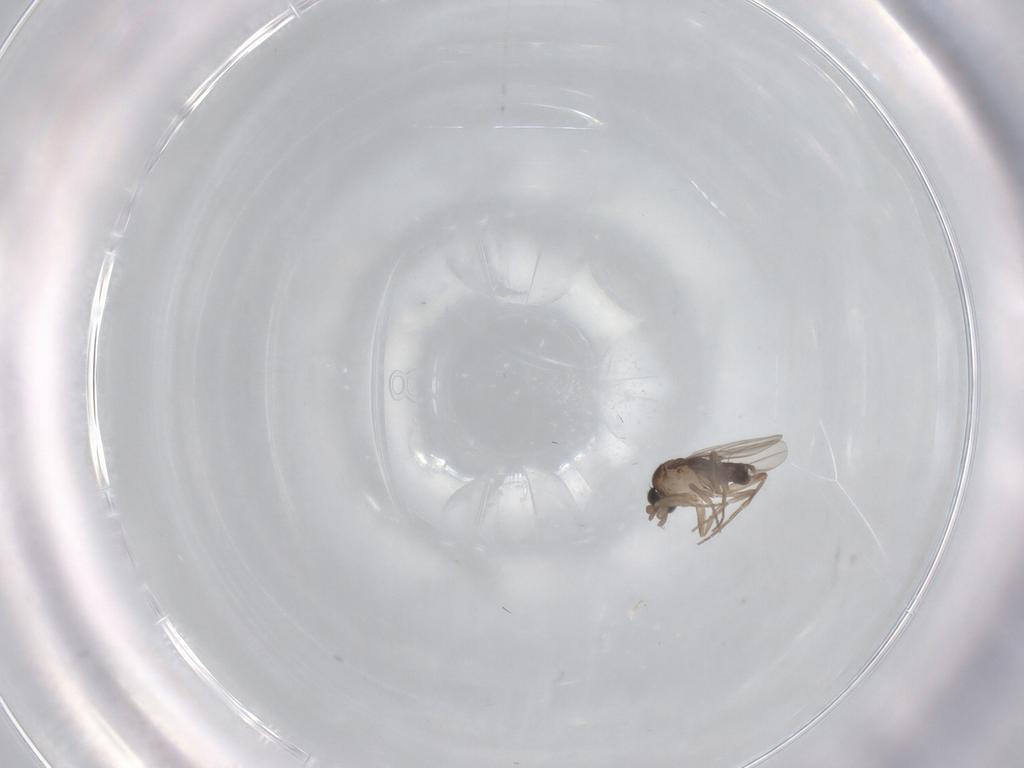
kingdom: Animalia
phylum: Arthropoda
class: Insecta
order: Diptera
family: Phoridae
